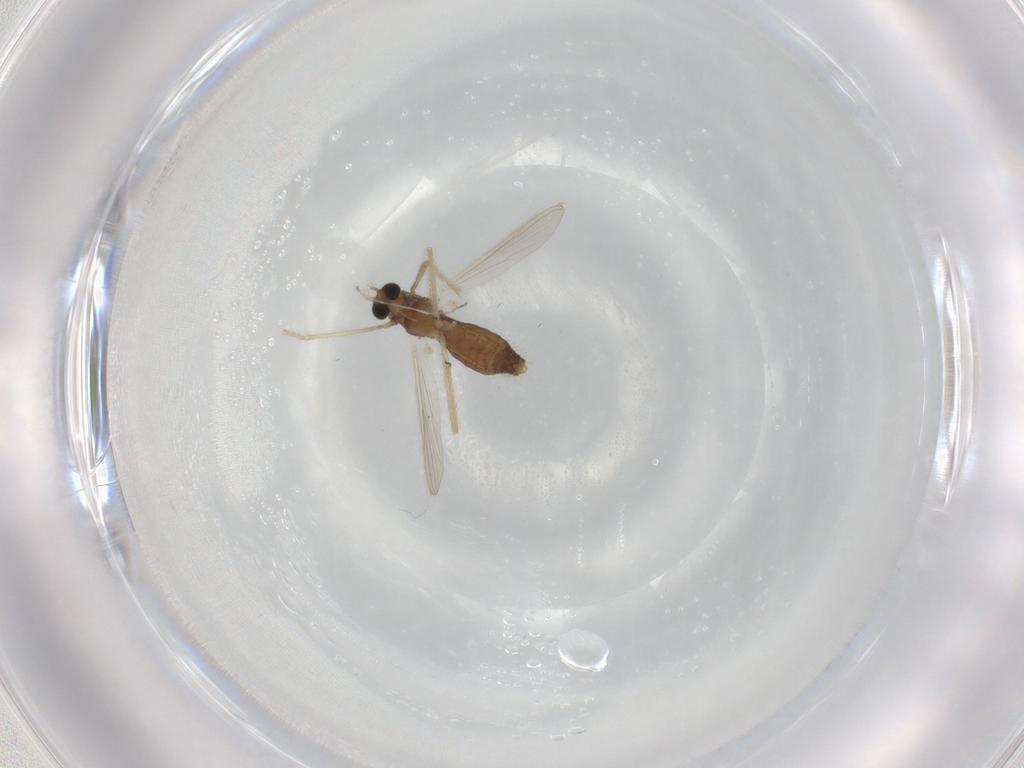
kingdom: Animalia
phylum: Arthropoda
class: Insecta
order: Diptera
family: Chironomidae
